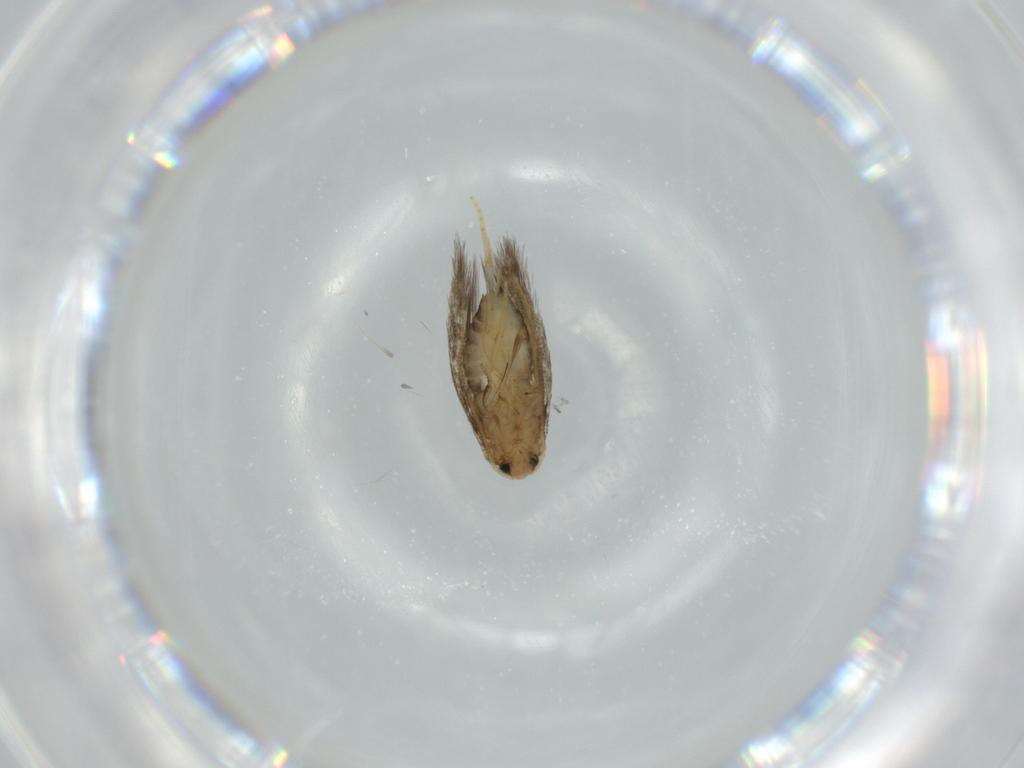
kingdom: Animalia
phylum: Arthropoda
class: Insecta
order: Lepidoptera
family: Nepticulidae
